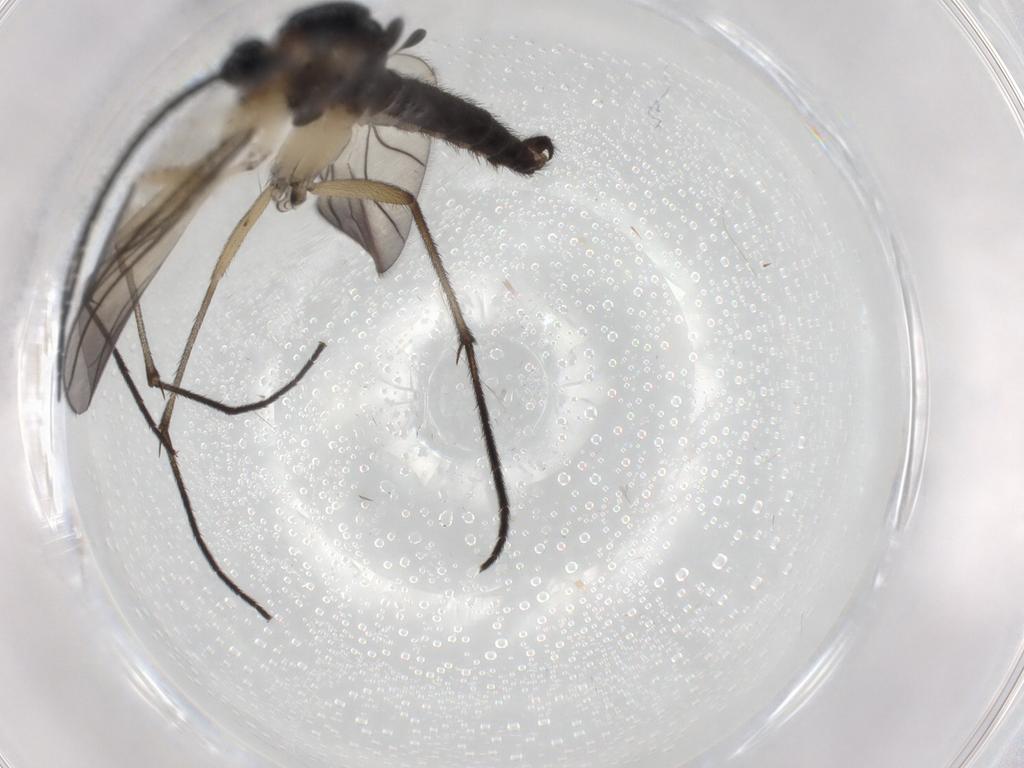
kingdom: Animalia
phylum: Arthropoda
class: Insecta
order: Diptera
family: Sciaridae
